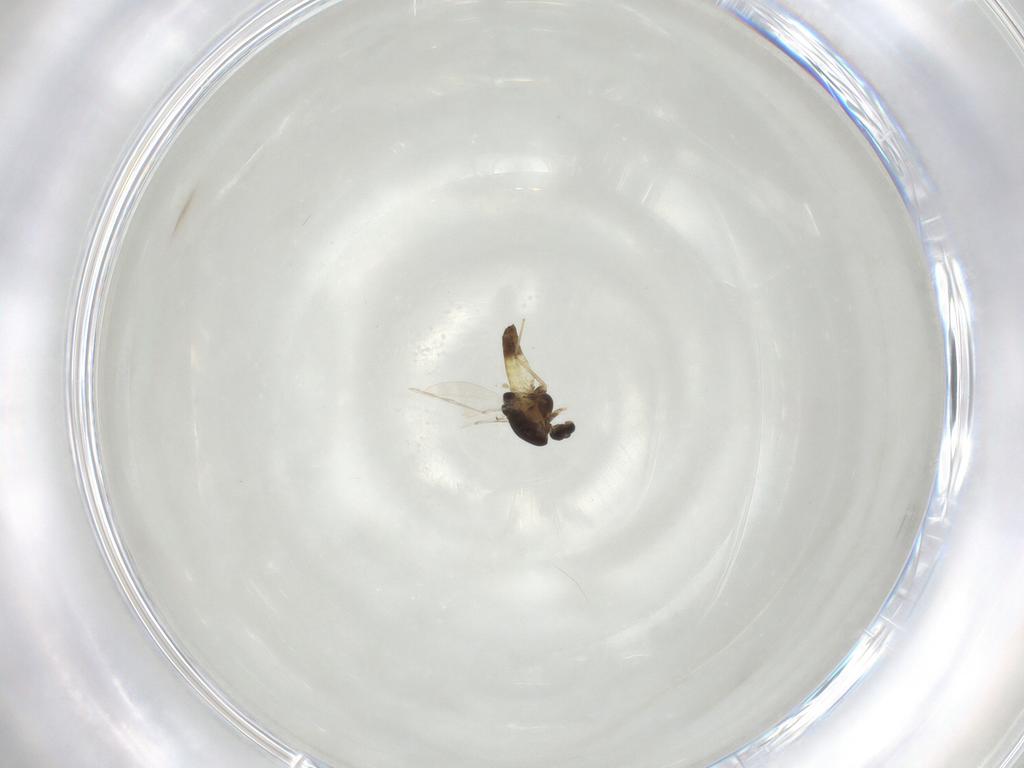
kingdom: Animalia
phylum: Arthropoda
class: Insecta
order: Diptera
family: Chironomidae
